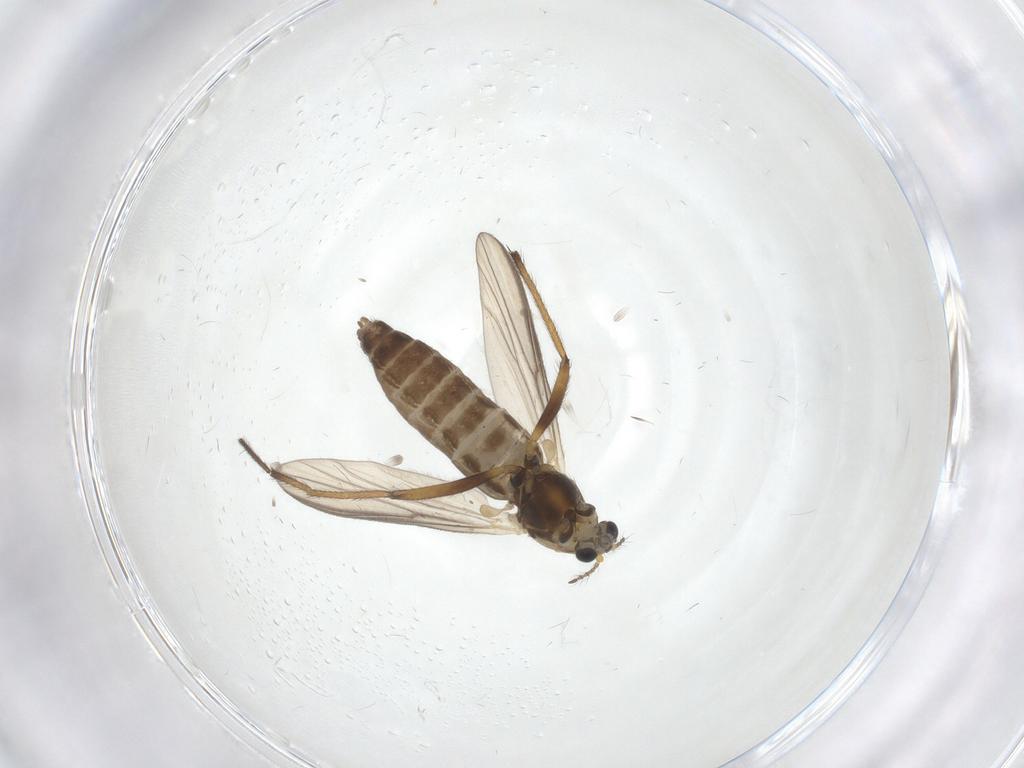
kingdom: Animalia
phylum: Arthropoda
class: Insecta
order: Diptera
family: Chironomidae
